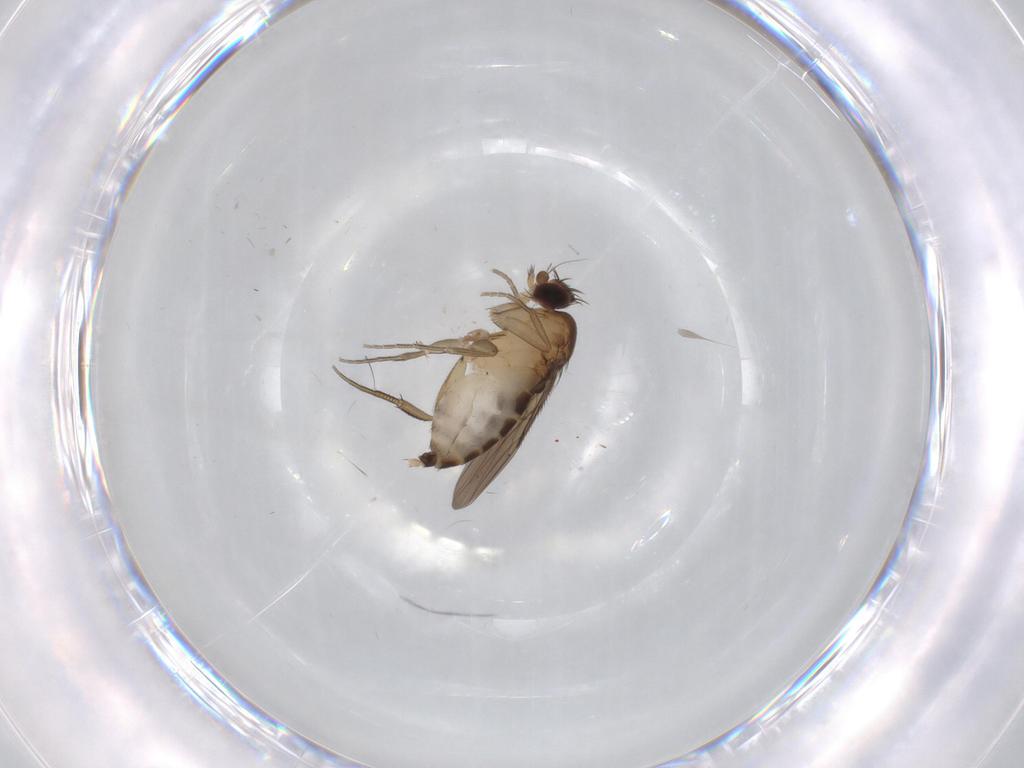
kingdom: Animalia
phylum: Arthropoda
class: Insecta
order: Diptera
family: Sciaridae
